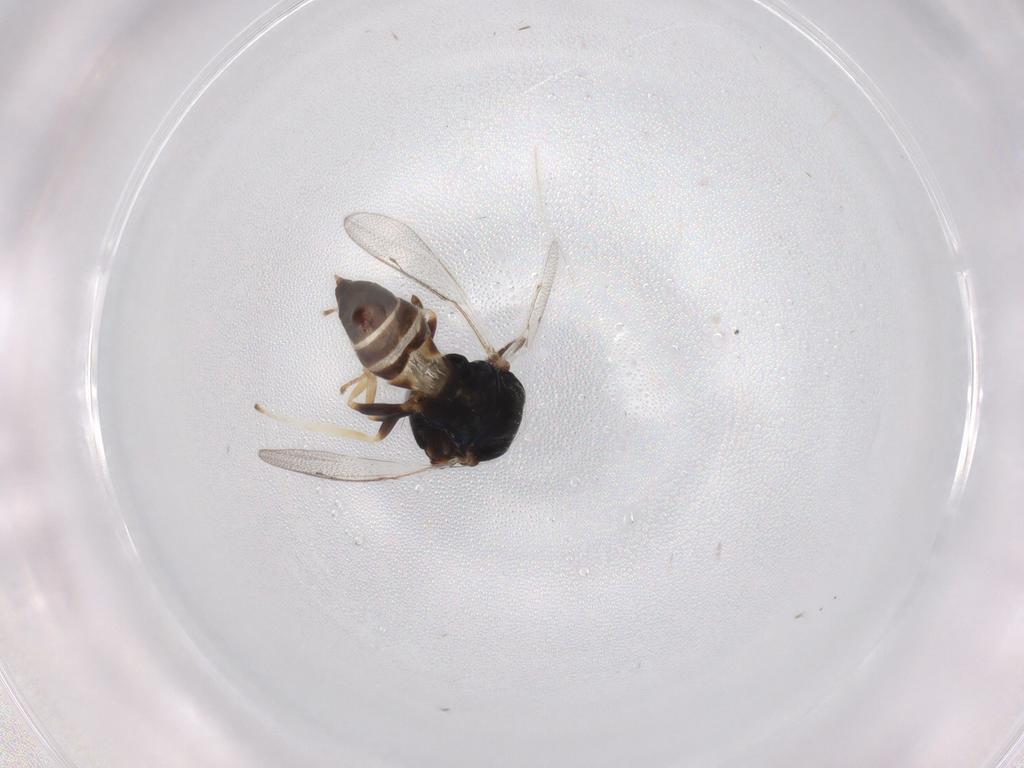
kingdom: Animalia
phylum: Arthropoda
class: Insecta
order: Hymenoptera
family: Pteromalidae
